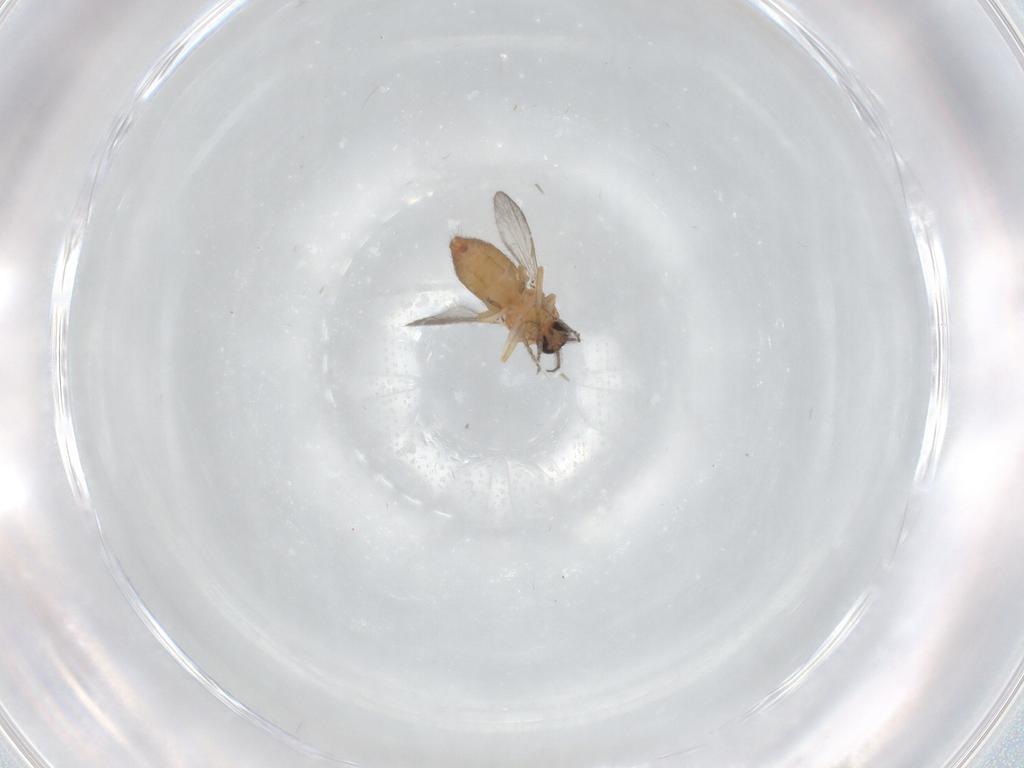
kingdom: Animalia
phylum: Arthropoda
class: Insecta
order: Diptera
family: Ceratopogonidae
